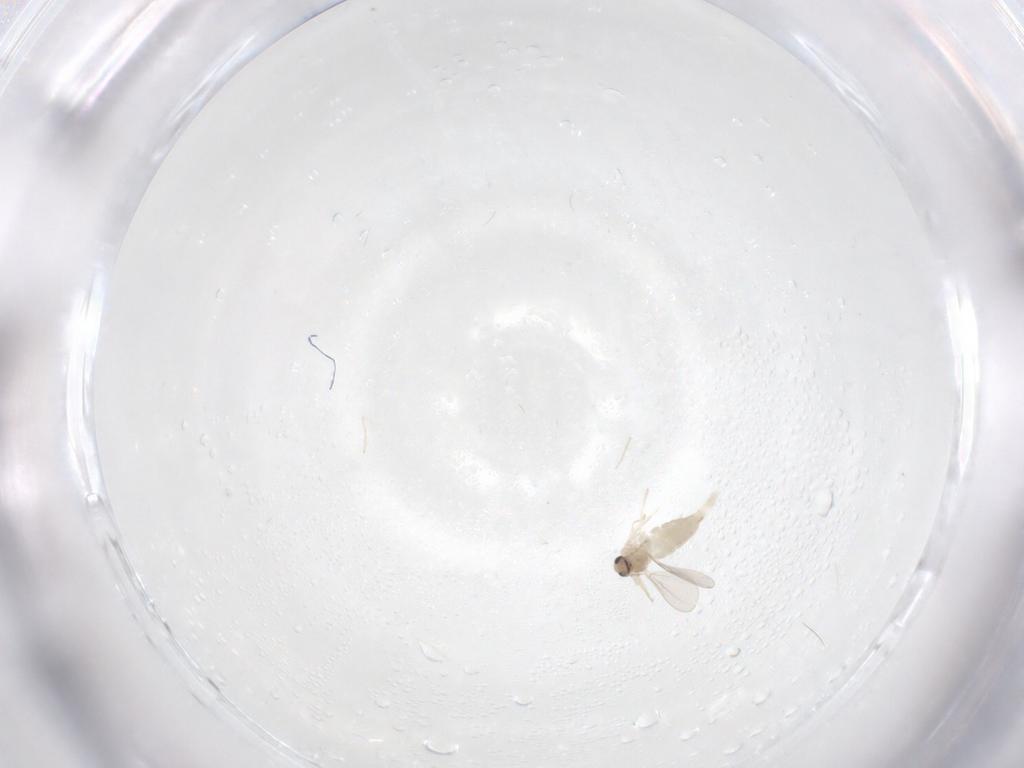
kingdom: Animalia
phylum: Arthropoda
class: Insecta
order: Diptera
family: Cecidomyiidae
